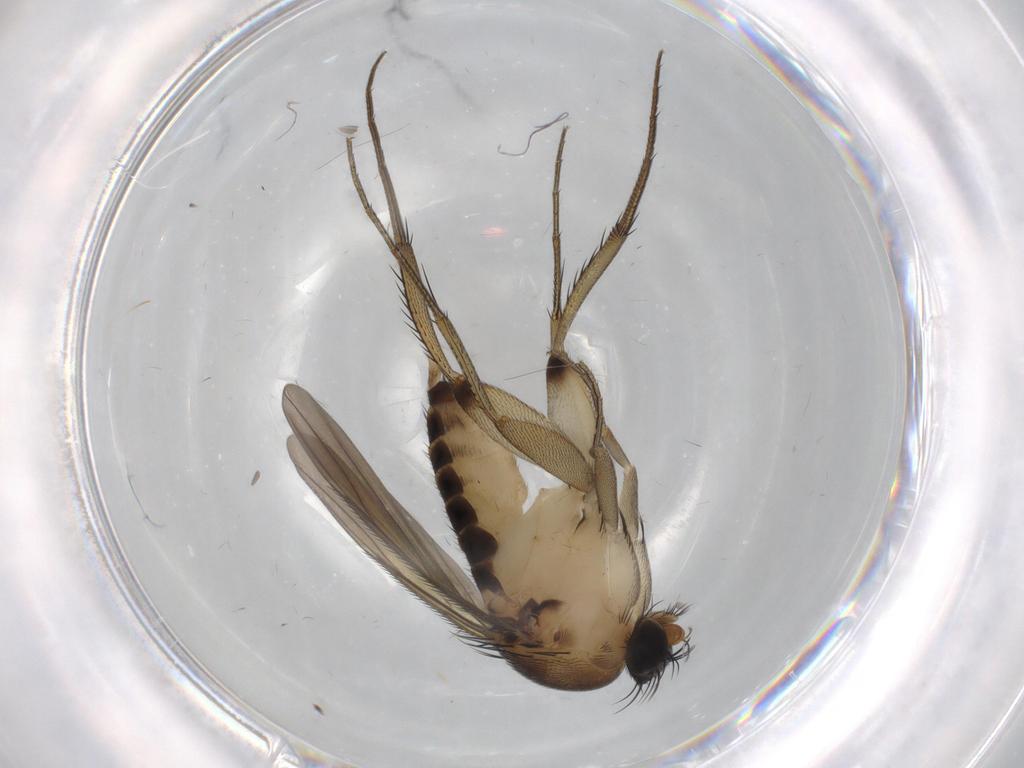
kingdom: Animalia
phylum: Arthropoda
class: Insecta
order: Diptera
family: Phoridae
